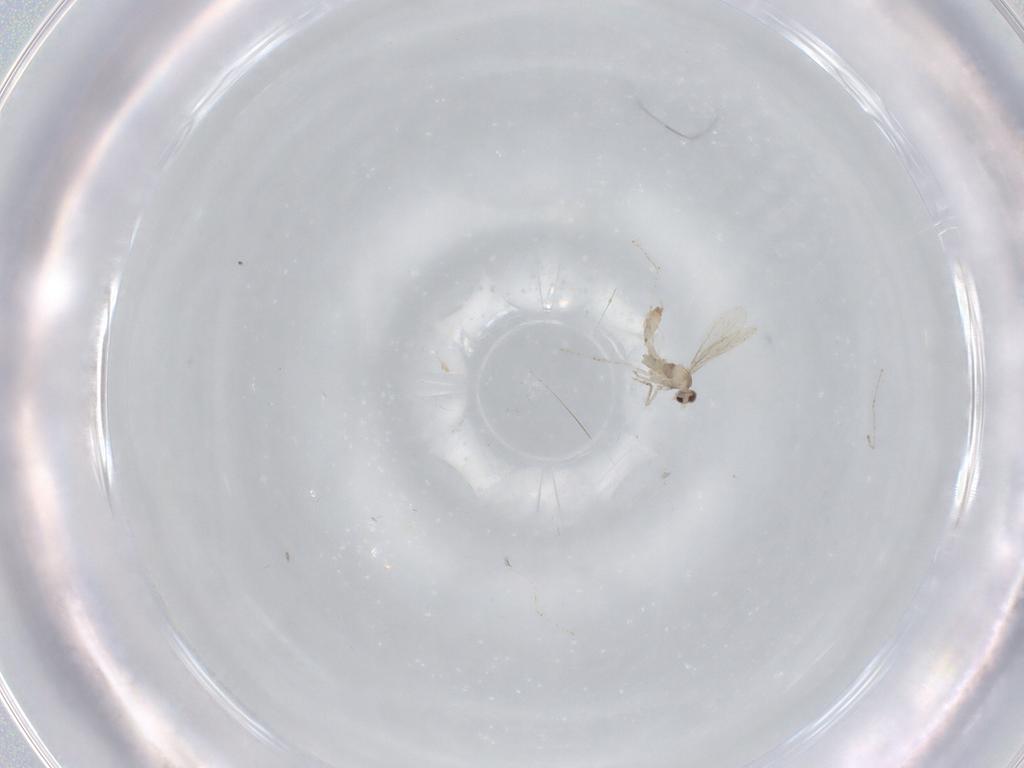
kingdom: Animalia
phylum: Arthropoda
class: Insecta
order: Diptera
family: Cecidomyiidae
